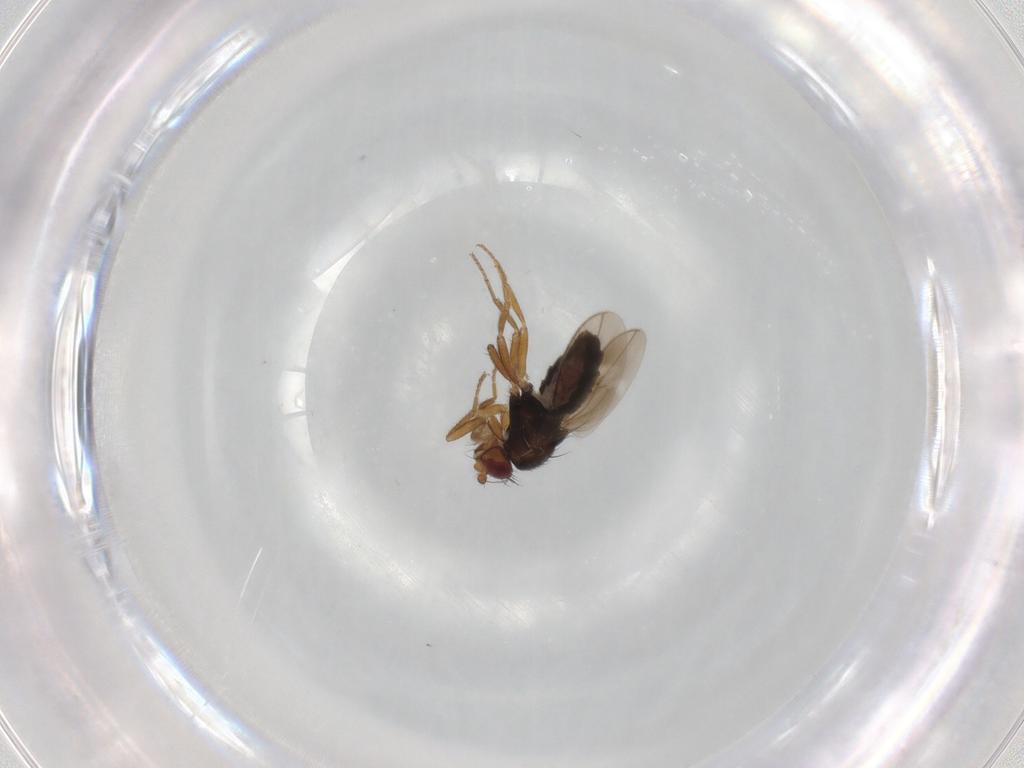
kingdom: Animalia
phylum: Arthropoda
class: Insecta
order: Diptera
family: Sphaeroceridae
